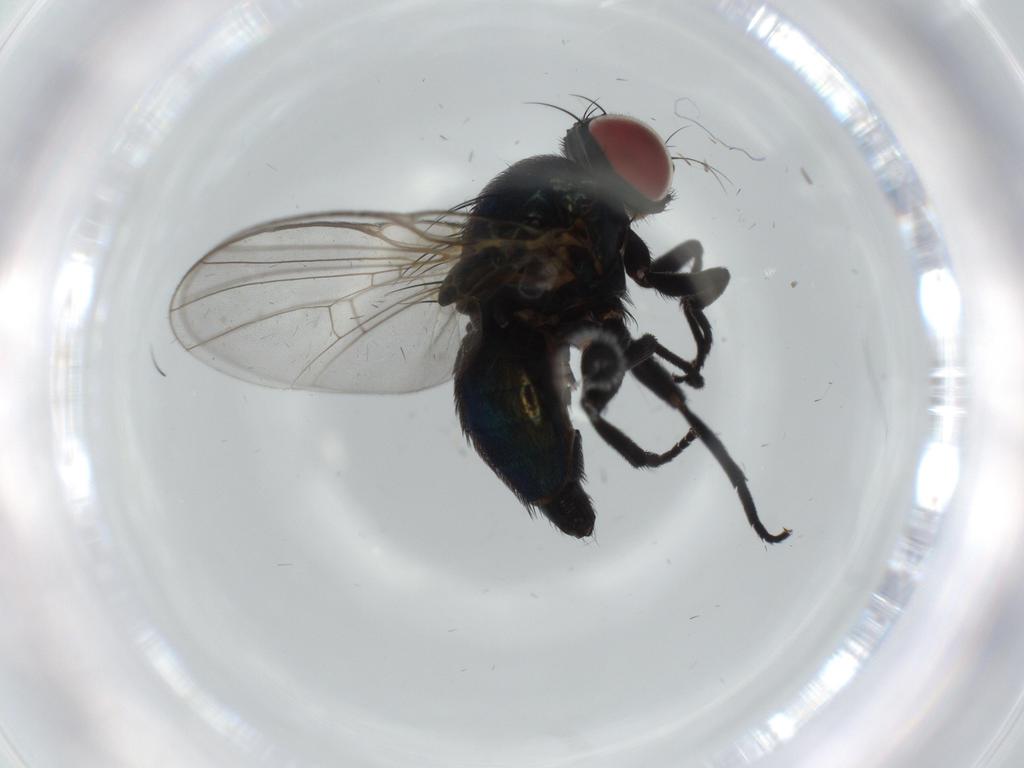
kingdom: Animalia
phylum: Arthropoda
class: Insecta
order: Diptera
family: Agromyzidae
